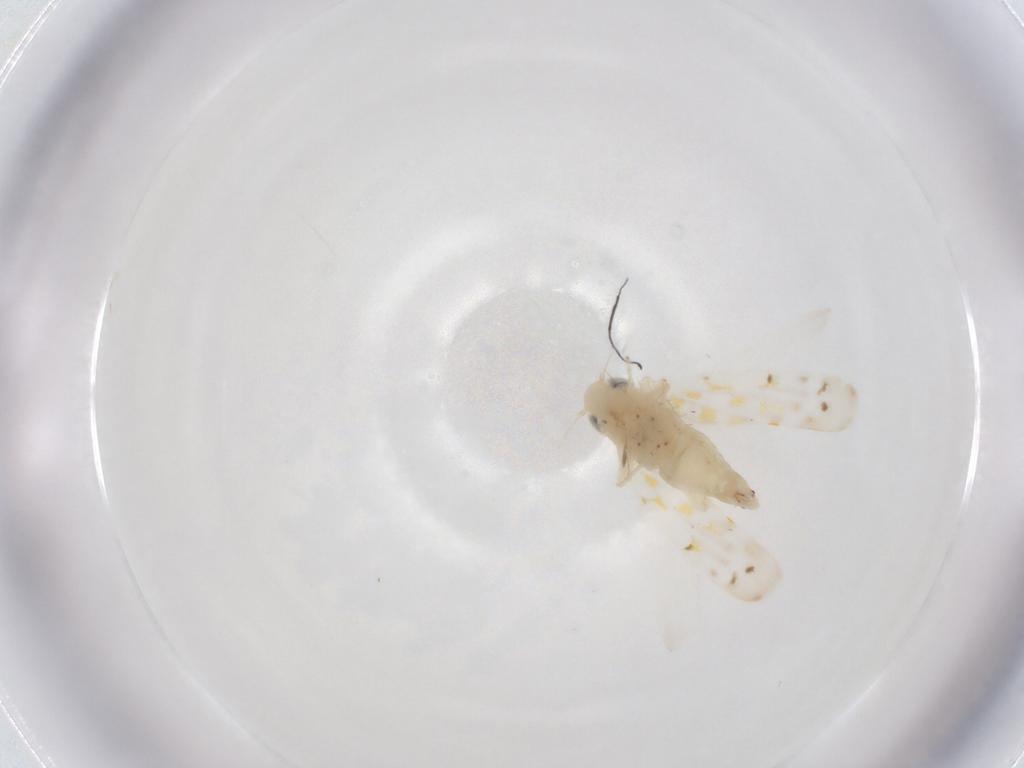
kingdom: Animalia
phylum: Arthropoda
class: Insecta
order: Hemiptera
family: Cicadellidae
